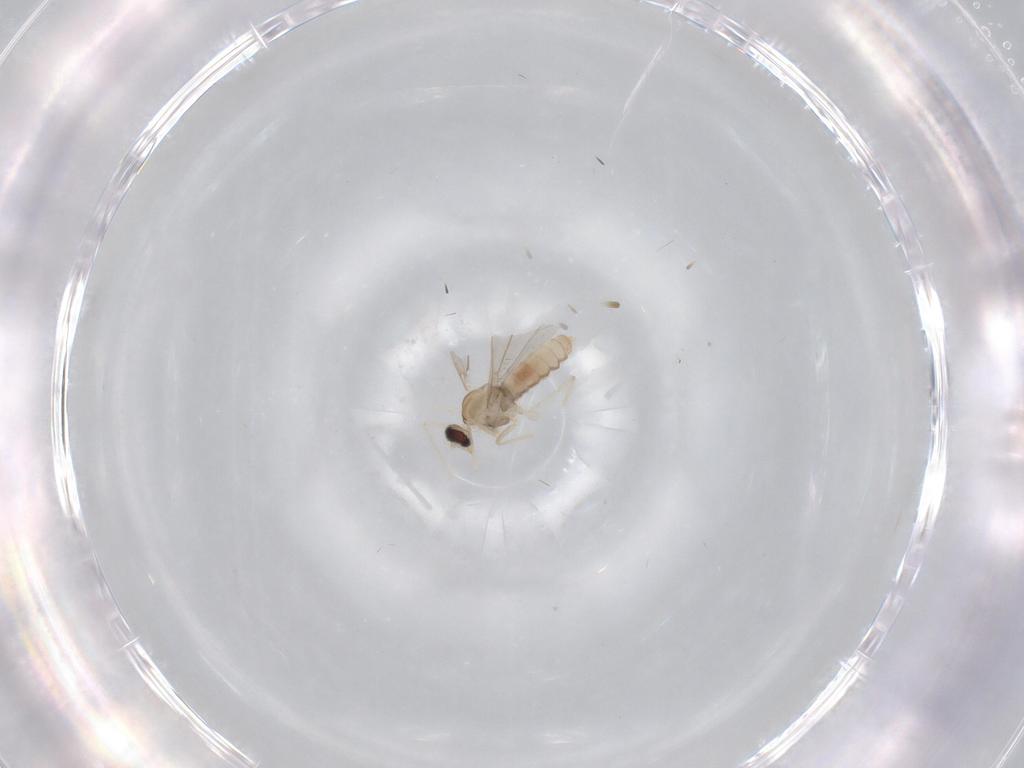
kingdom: Animalia
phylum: Arthropoda
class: Insecta
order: Diptera
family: Cecidomyiidae
